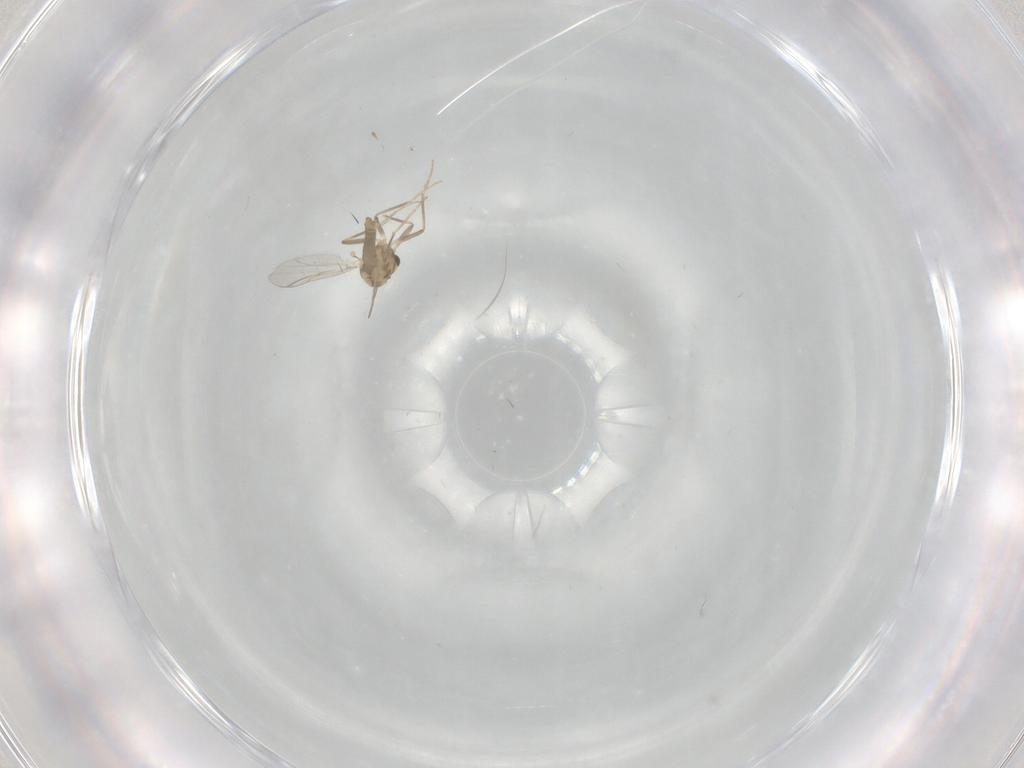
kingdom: Animalia
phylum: Arthropoda
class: Insecta
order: Diptera
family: Chironomidae
